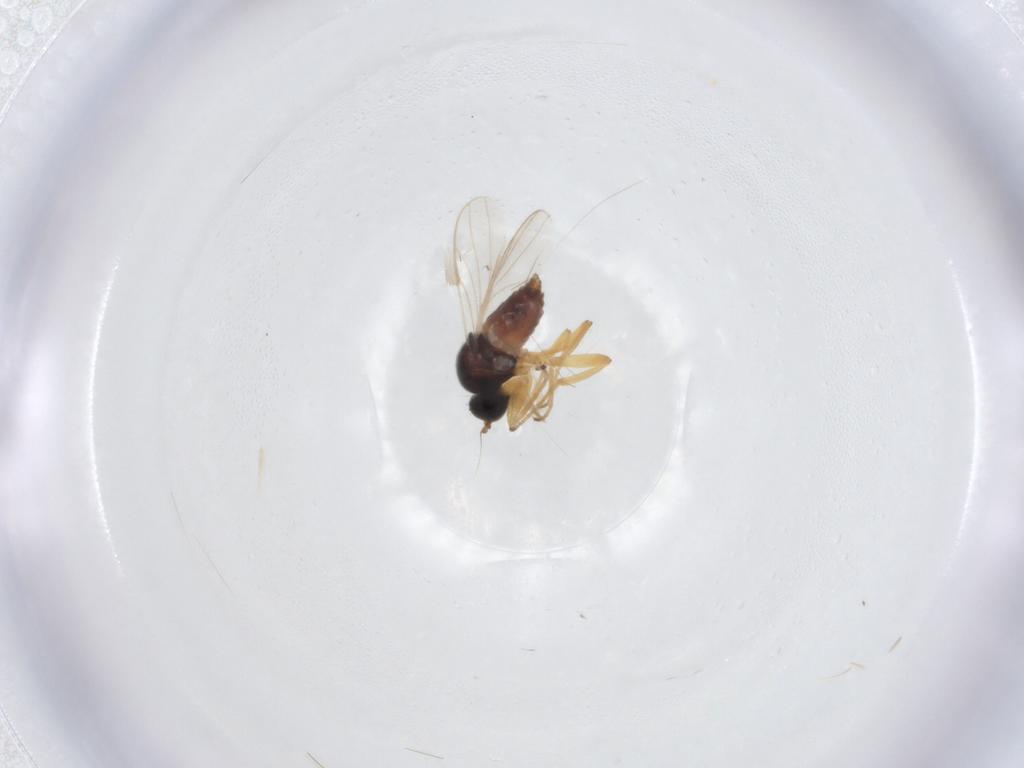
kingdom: Animalia
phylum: Arthropoda
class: Insecta
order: Diptera
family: Hybotidae
